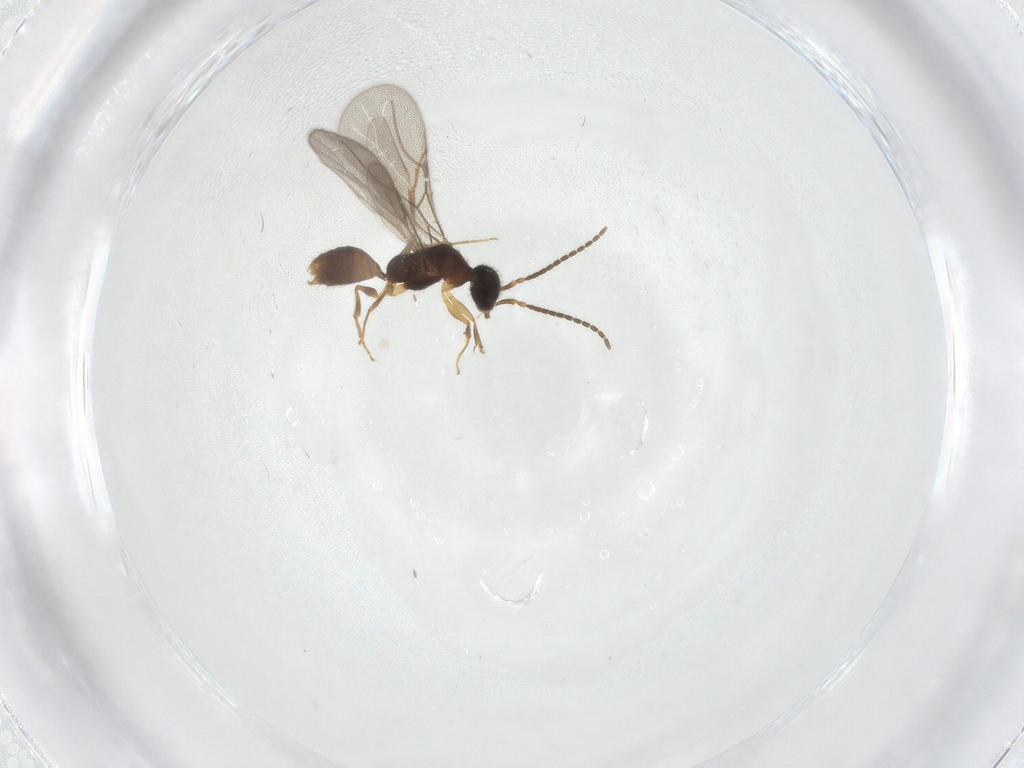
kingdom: Animalia
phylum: Arthropoda
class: Insecta
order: Hymenoptera
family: Bethylidae
